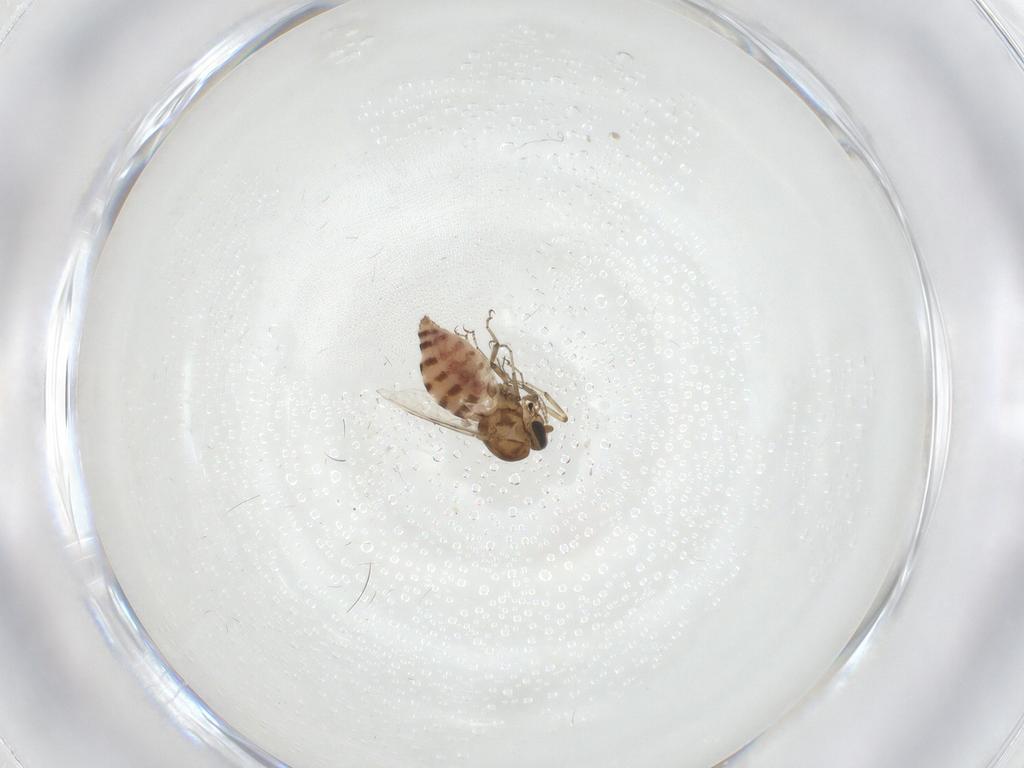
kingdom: Animalia
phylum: Arthropoda
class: Insecta
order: Diptera
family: Ceratopogonidae
